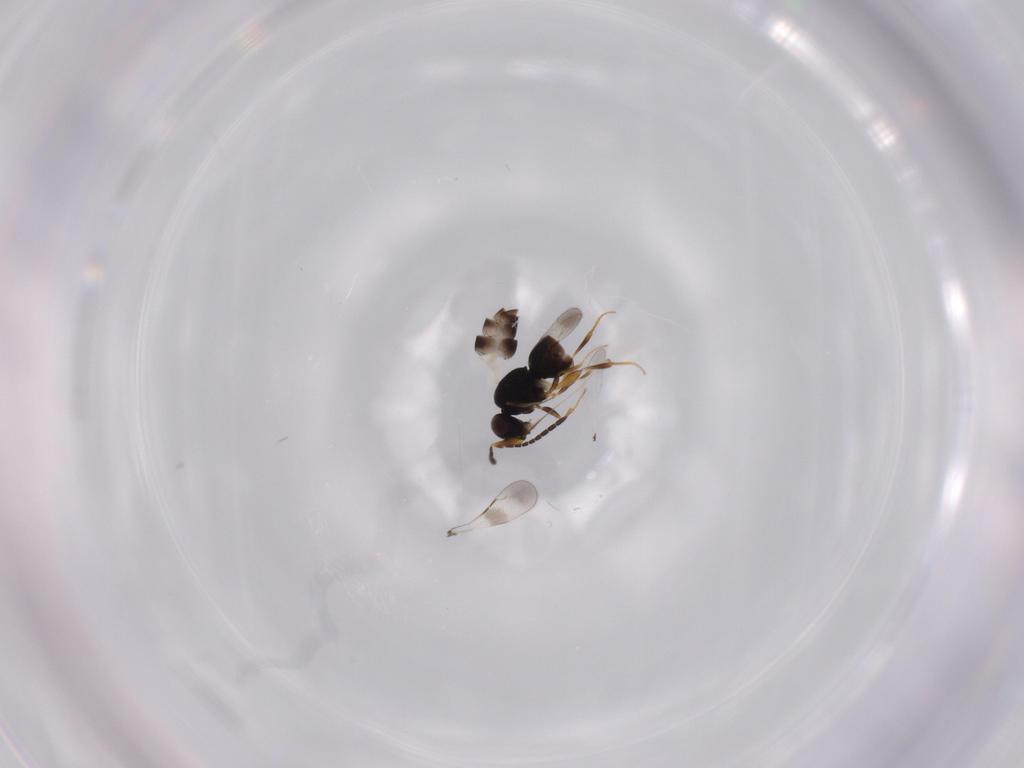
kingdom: Animalia
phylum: Arthropoda
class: Insecta
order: Hymenoptera
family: Ceraphronidae
